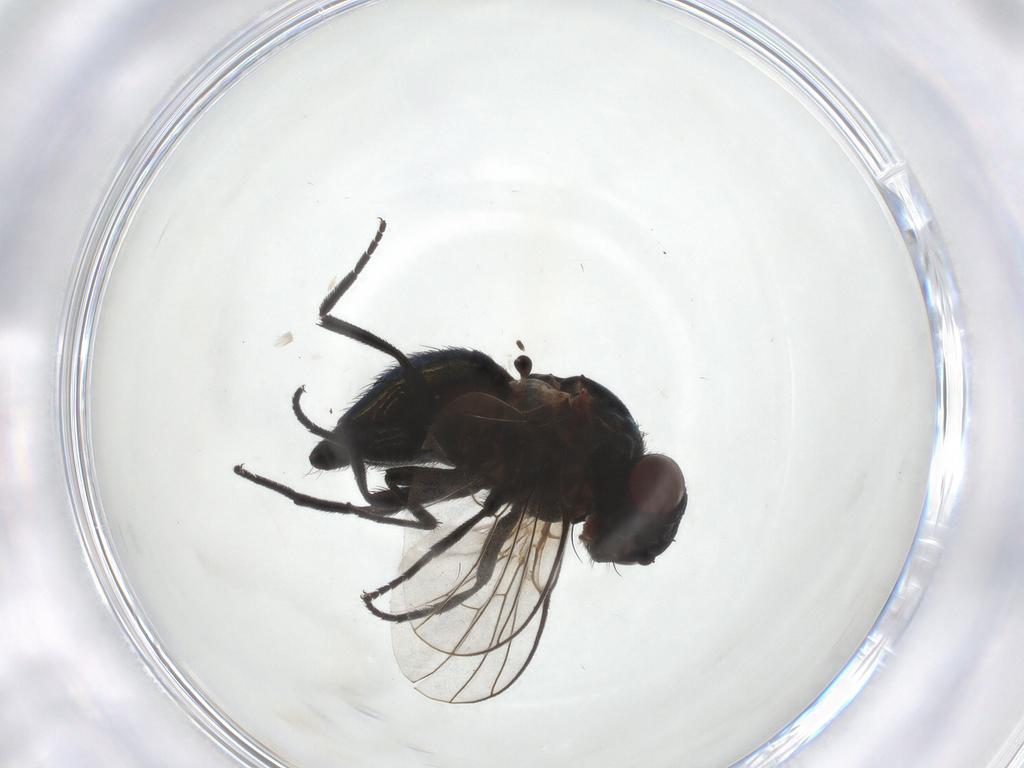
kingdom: Animalia
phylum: Arthropoda
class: Insecta
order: Diptera
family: Agromyzidae
